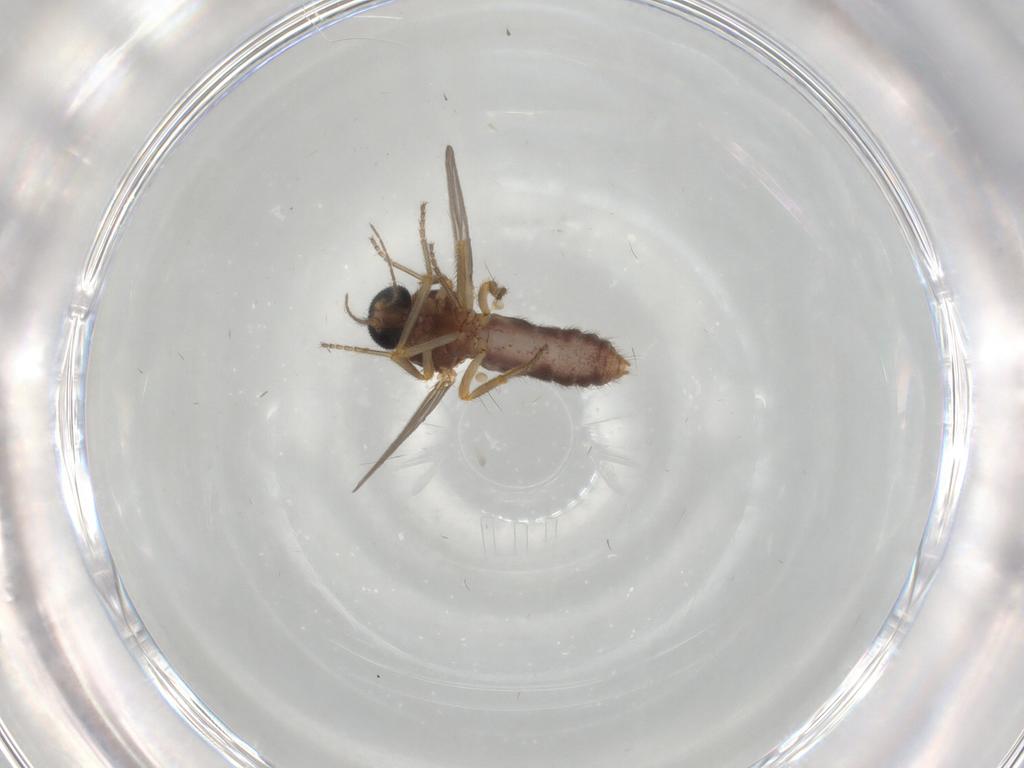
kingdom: Animalia
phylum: Arthropoda
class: Insecta
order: Diptera
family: Ceratopogonidae
